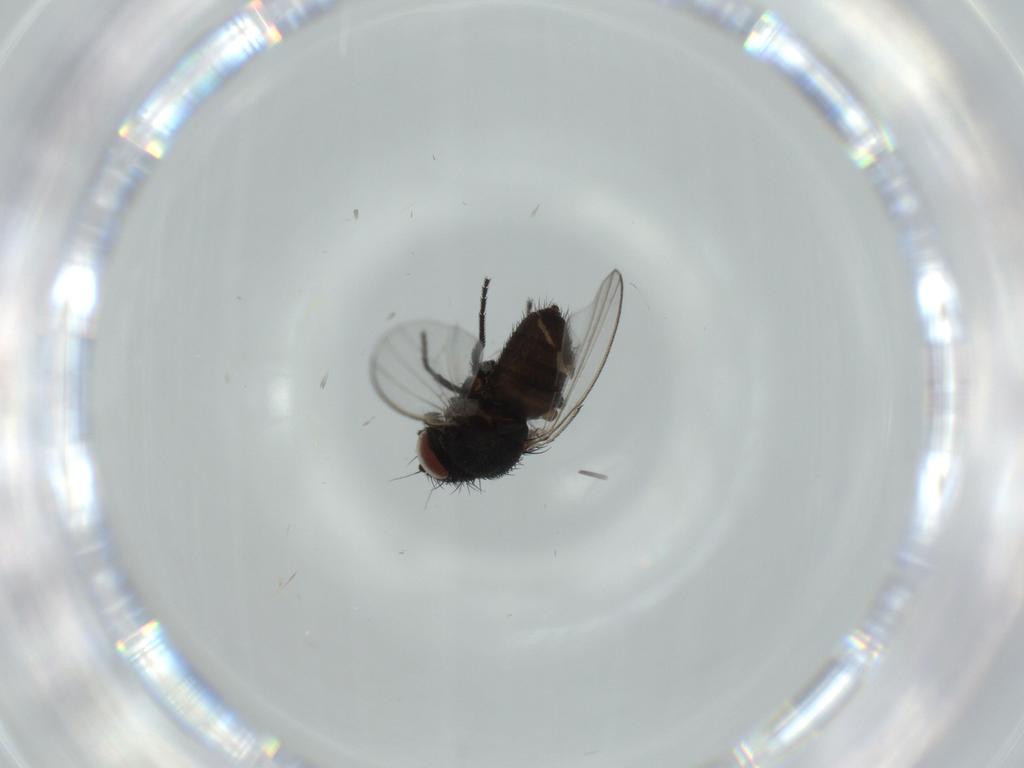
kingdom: Animalia
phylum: Arthropoda
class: Insecta
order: Diptera
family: Milichiidae
